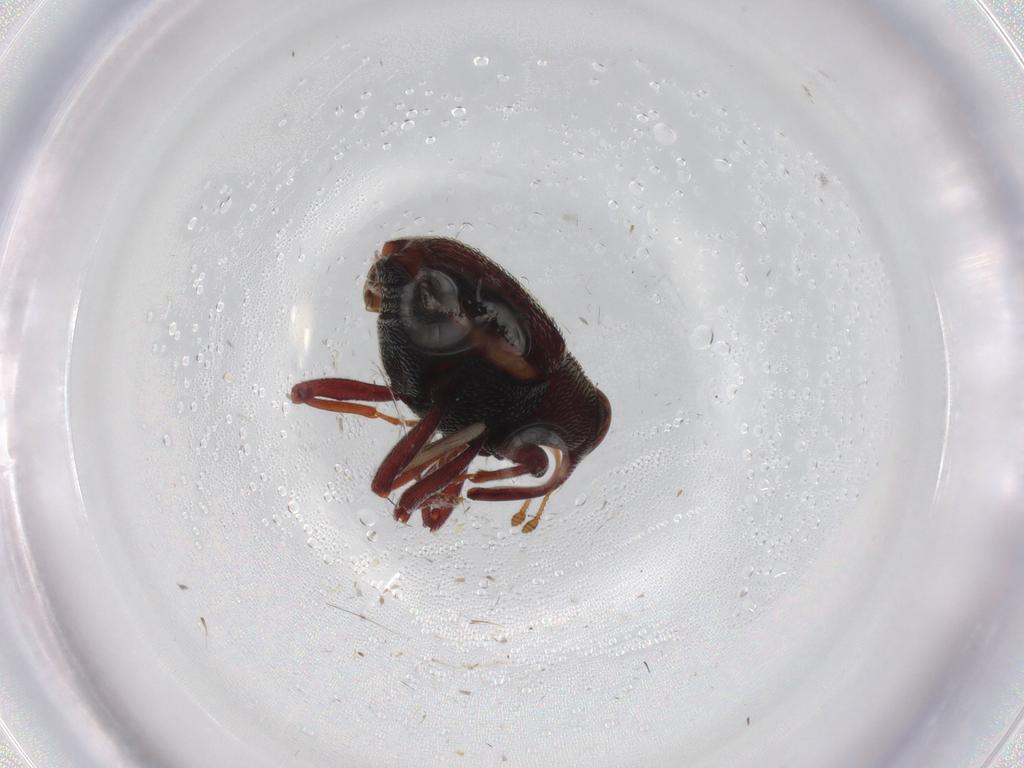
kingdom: Animalia
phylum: Arthropoda
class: Insecta
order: Coleoptera
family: Curculionidae
